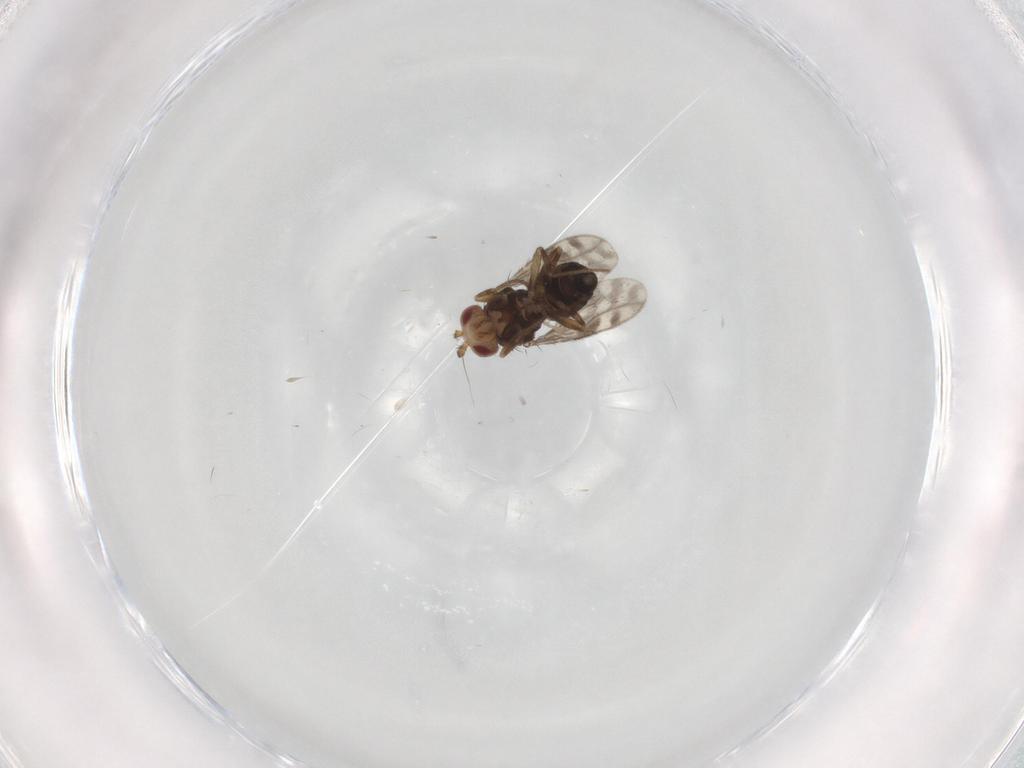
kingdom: Animalia
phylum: Arthropoda
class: Insecta
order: Diptera
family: Sphaeroceridae
